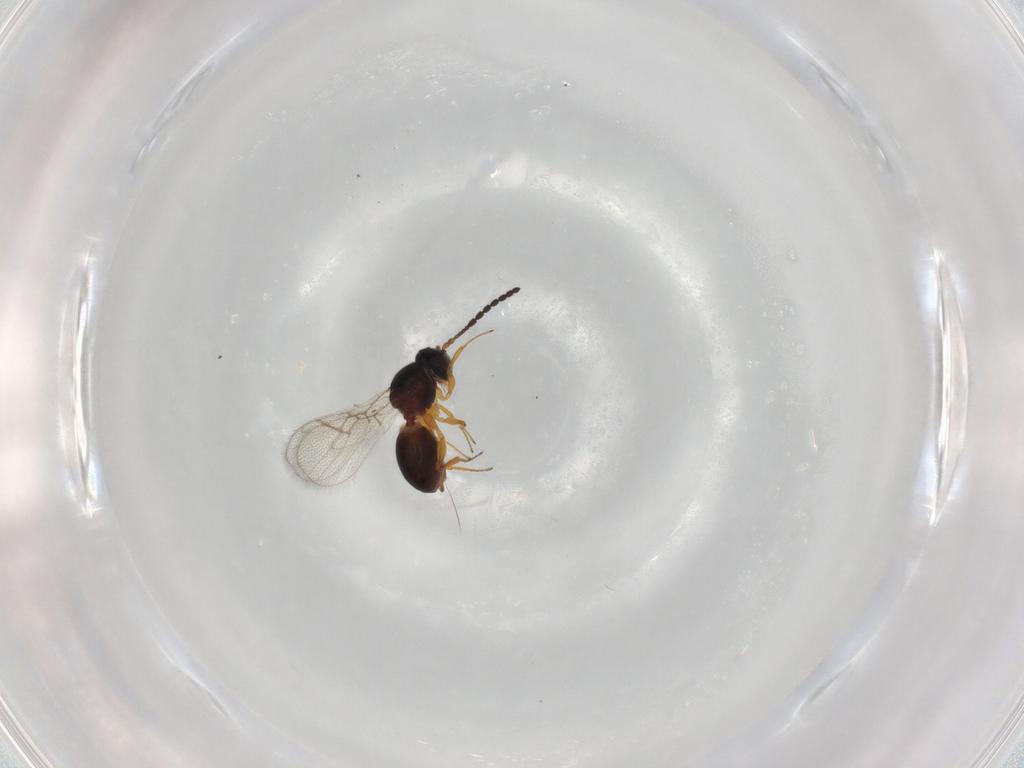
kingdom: Animalia
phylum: Arthropoda
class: Insecta
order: Hymenoptera
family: Figitidae
